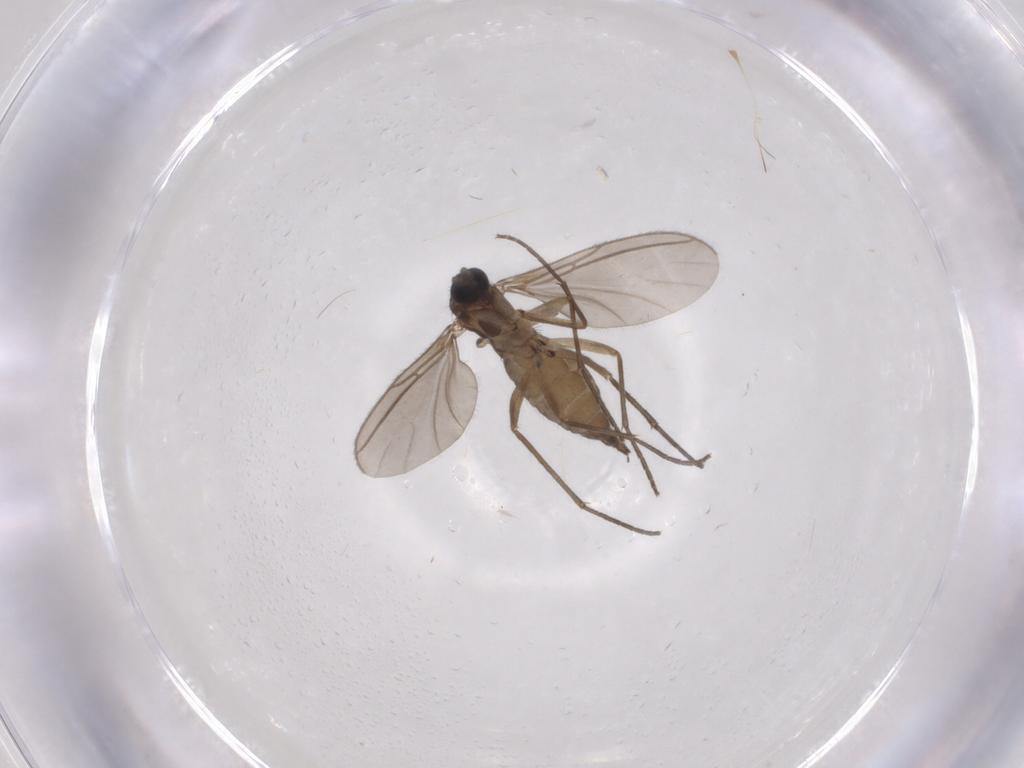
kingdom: Animalia
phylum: Arthropoda
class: Insecta
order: Diptera
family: Sciaridae
